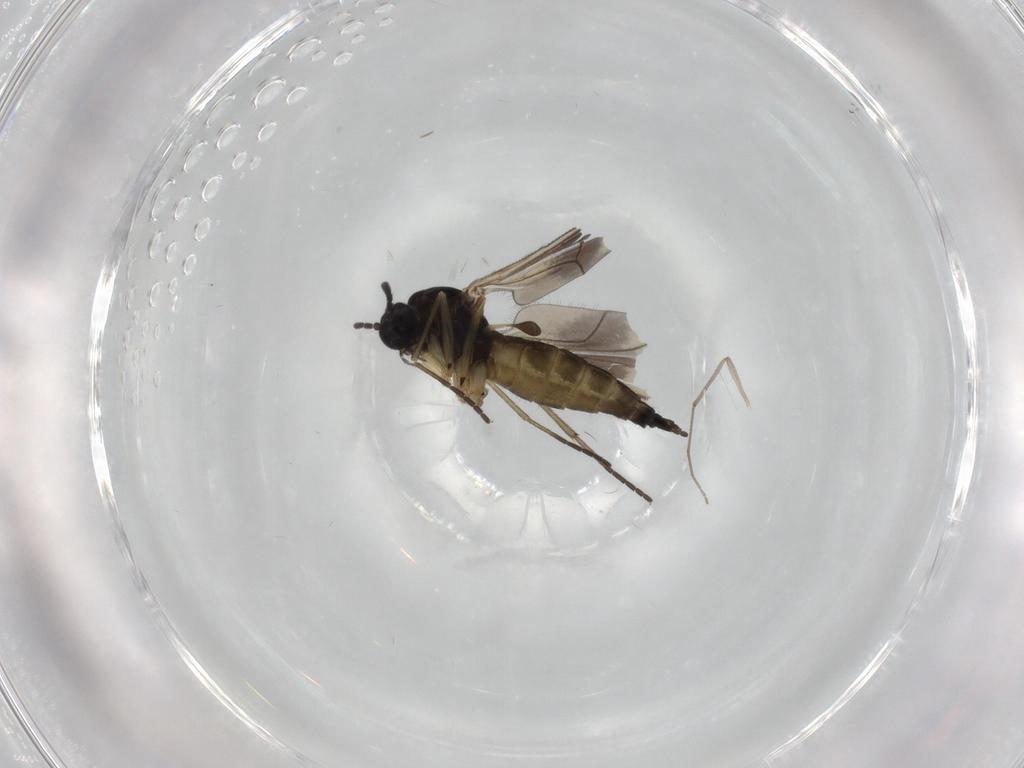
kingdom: Animalia
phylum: Arthropoda
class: Insecta
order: Diptera
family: Sciaridae
